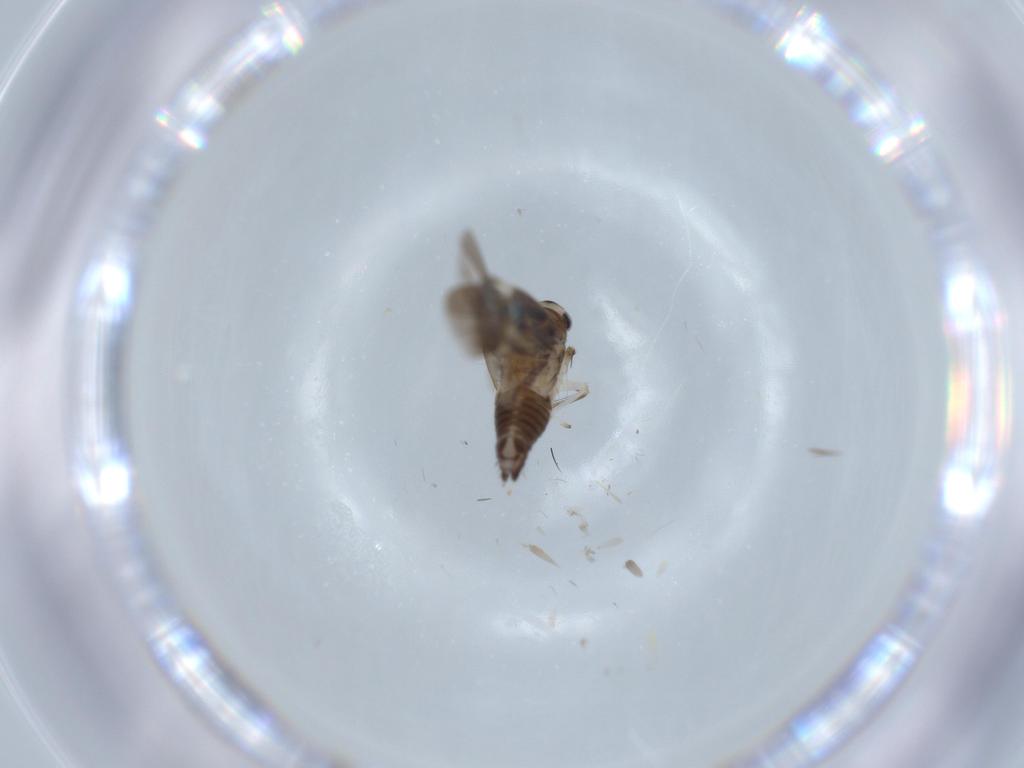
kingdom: Animalia
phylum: Arthropoda
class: Insecta
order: Hemiptera
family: Cicadellidae
